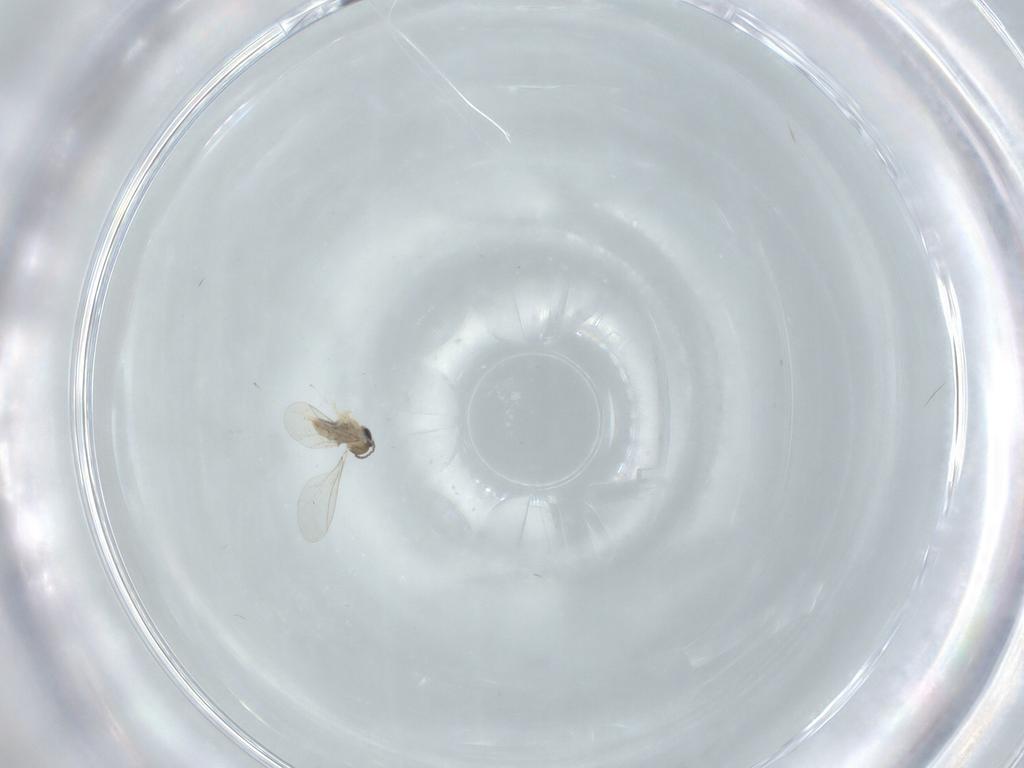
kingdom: Animalia
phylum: Arthropoda
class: Insecta
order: Diptera
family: Cecidomyiidae
